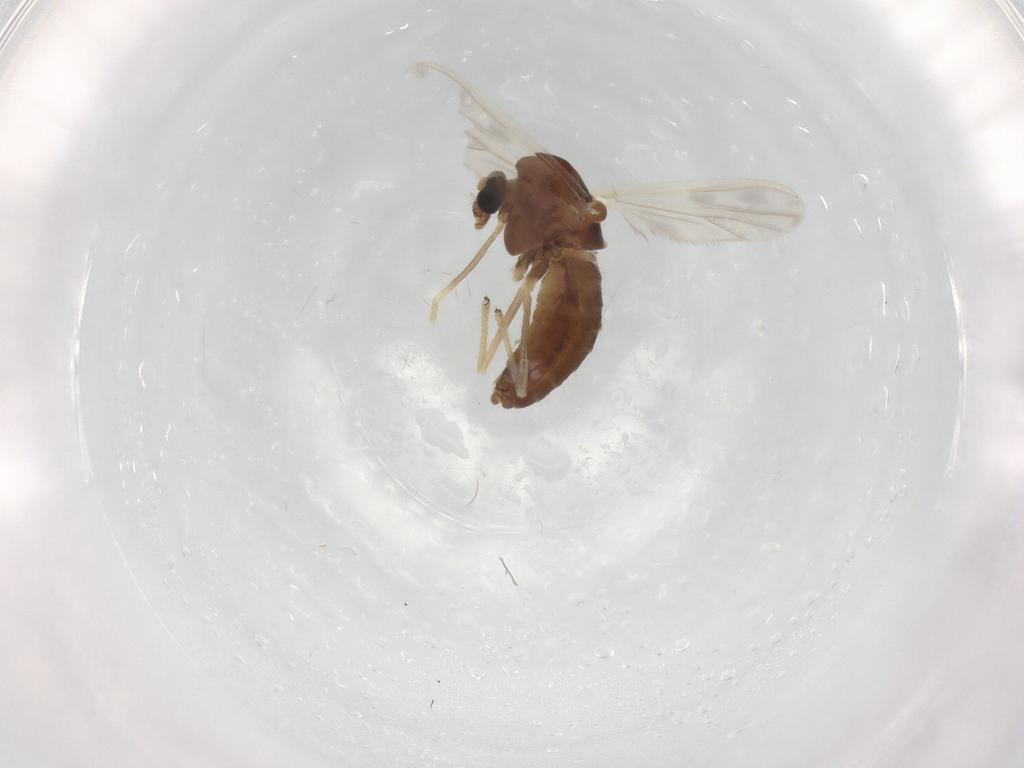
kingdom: Animalia
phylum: Arthropoda
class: Insecta
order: Diptera
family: Chironomidae
